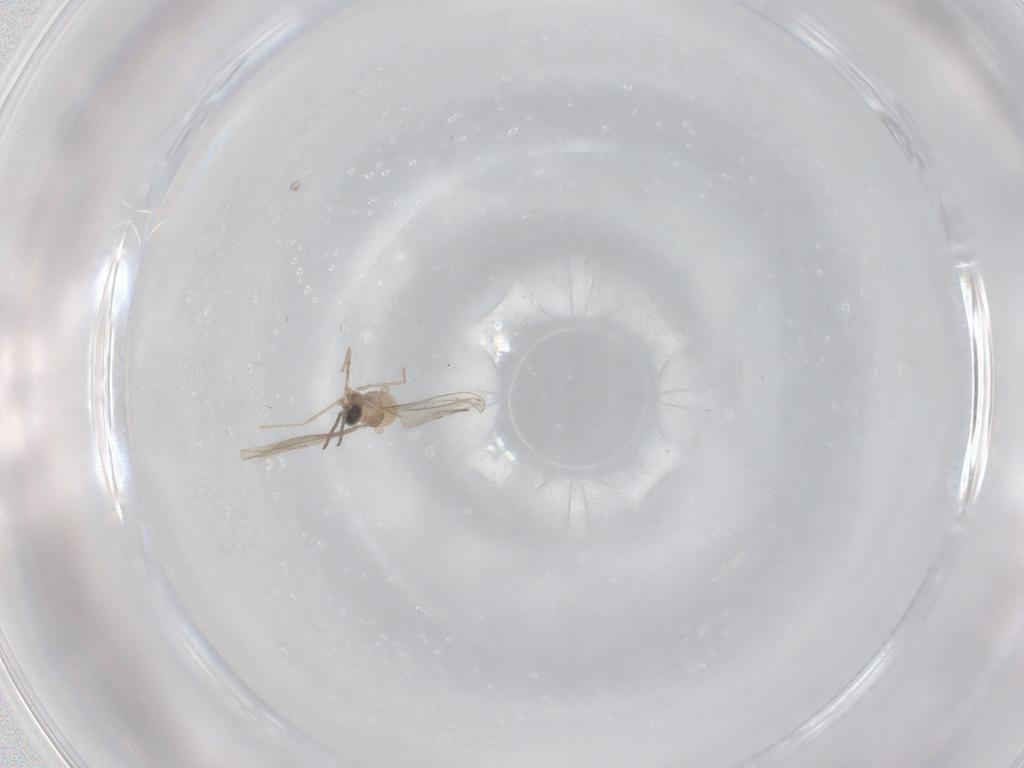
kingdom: Animalia
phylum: Arthropoda
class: Insecta
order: Diptera
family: Cecidomyiidae
